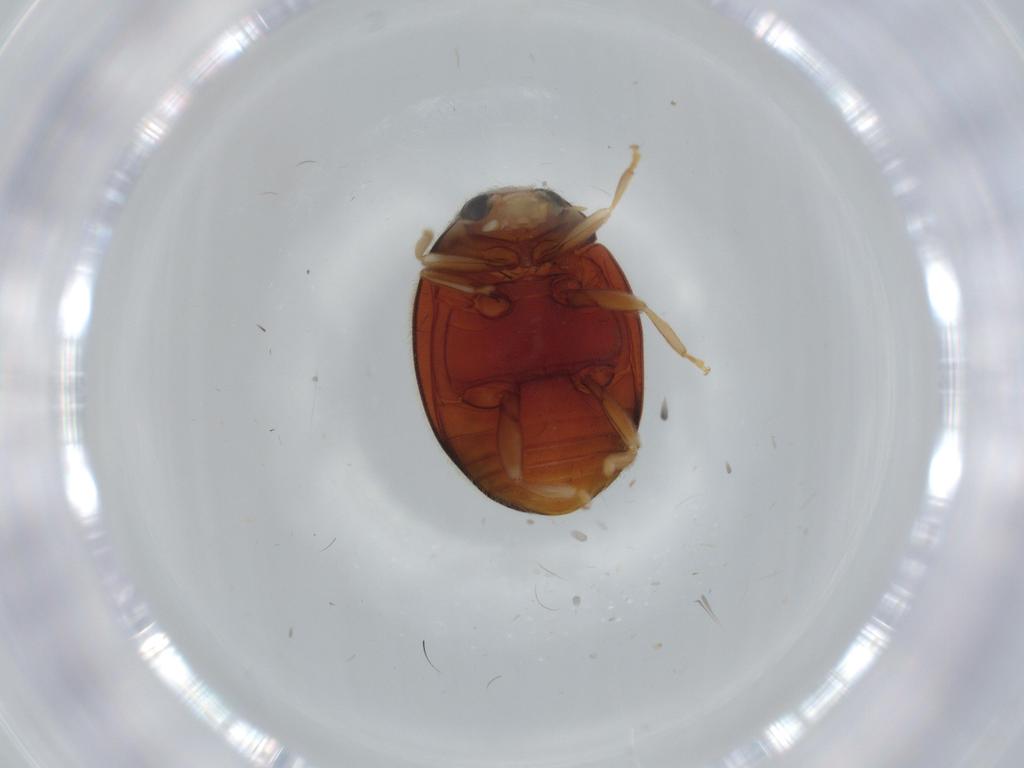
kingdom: Animalia
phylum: Arthropoda
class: Insecta
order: Coleoptera
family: Coccinellidae
